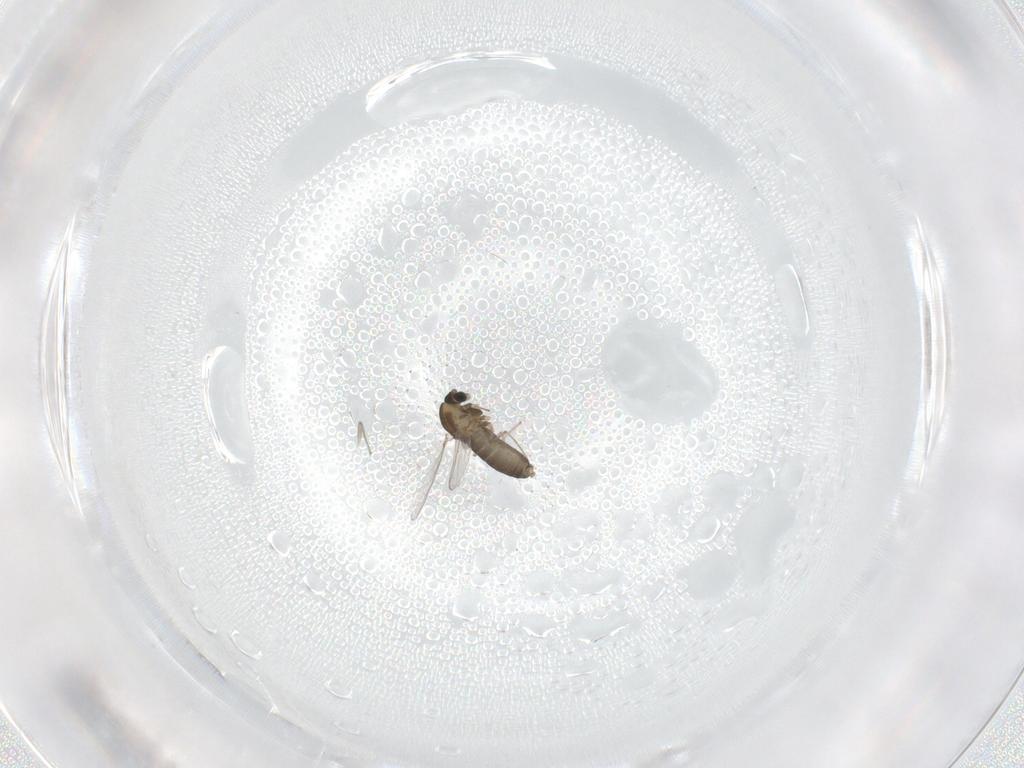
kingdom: Animalia
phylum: Arthropoda
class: Insecta
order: Diptera
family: Chironomidae
